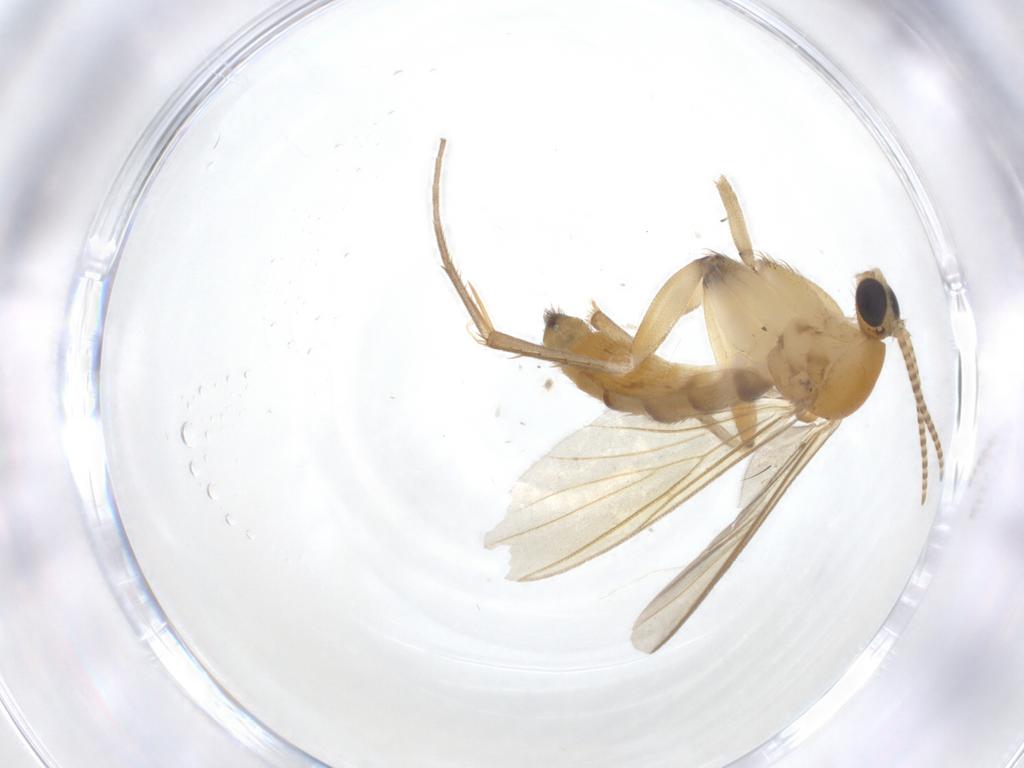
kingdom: Animalia
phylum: Arthropoda
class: Insecta
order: Diptera
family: Mycetophilidae
